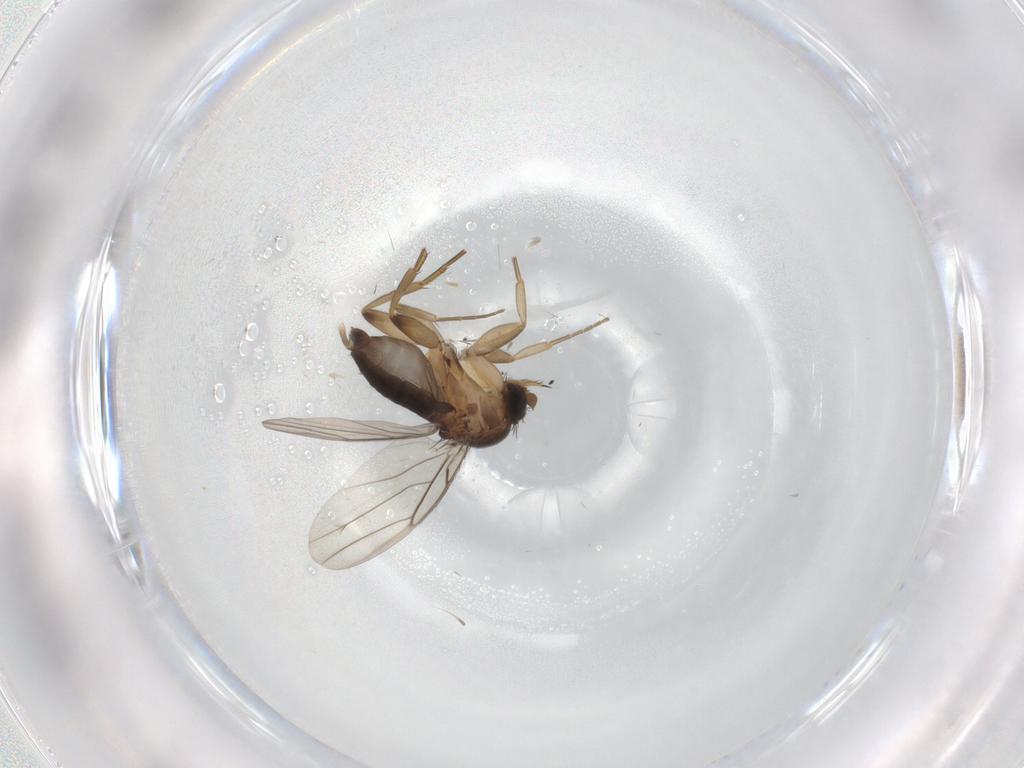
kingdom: Animalia
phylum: Arthropoda
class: Insecta
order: Diptera
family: Phoridae
